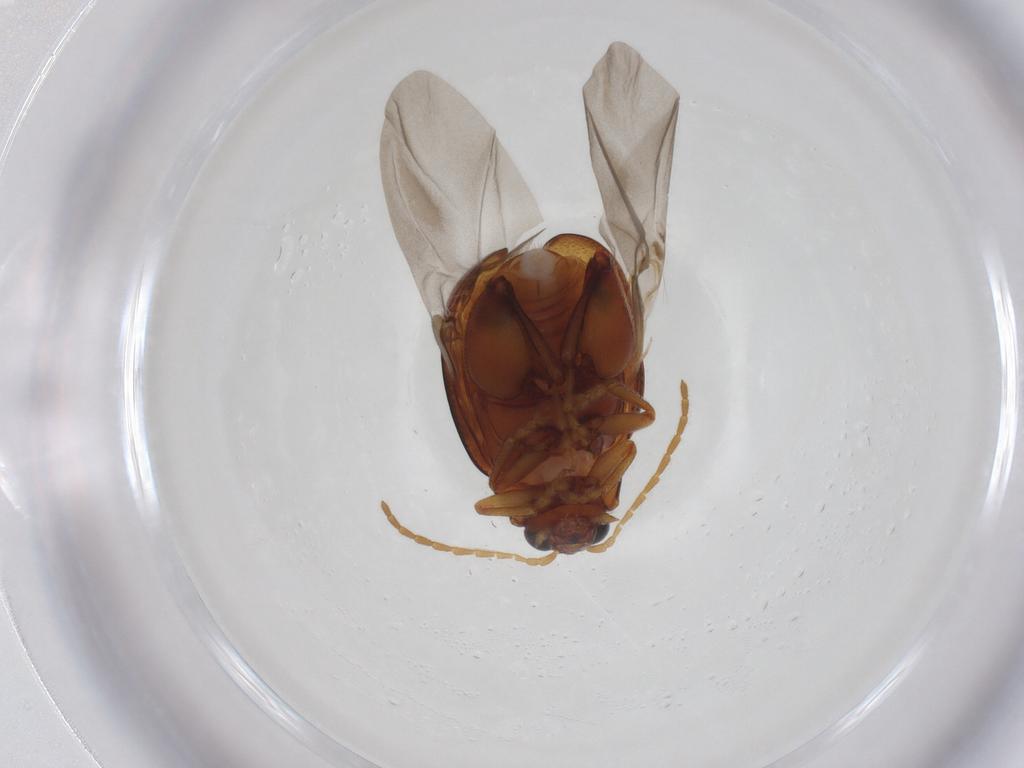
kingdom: Animalia
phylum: Arthropoda
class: Insecta
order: Coleoptera
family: Chrysomelidae
